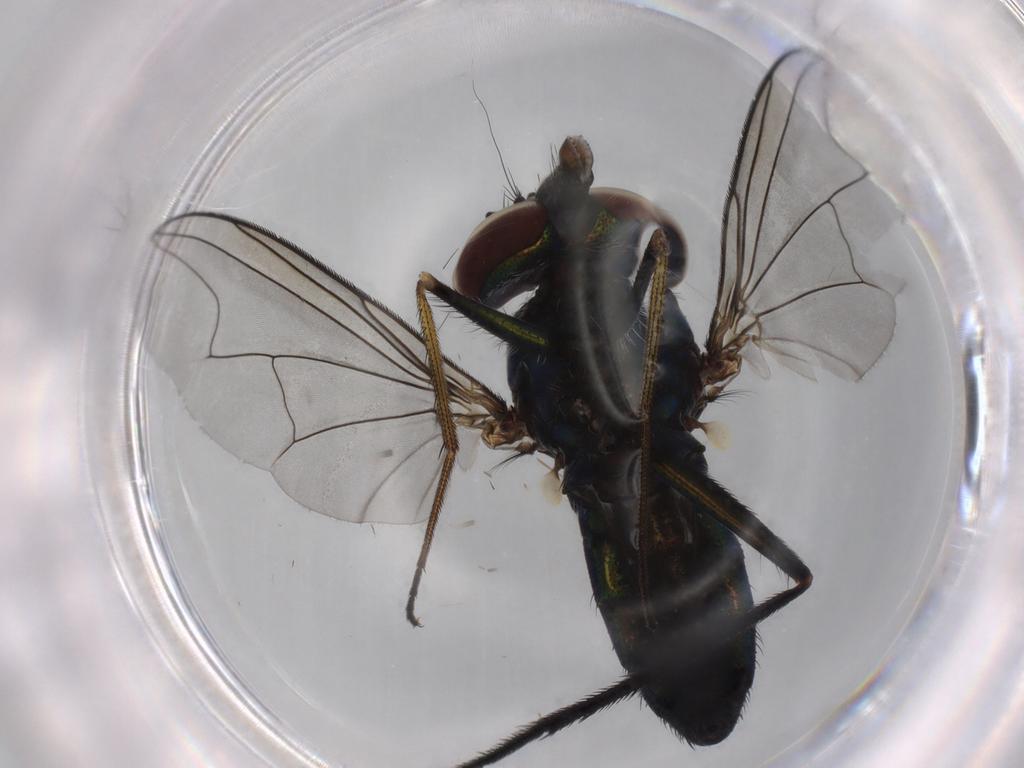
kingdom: Animalia
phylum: Arthropoda
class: Insecta
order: Diptera
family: Dolichopodidae
